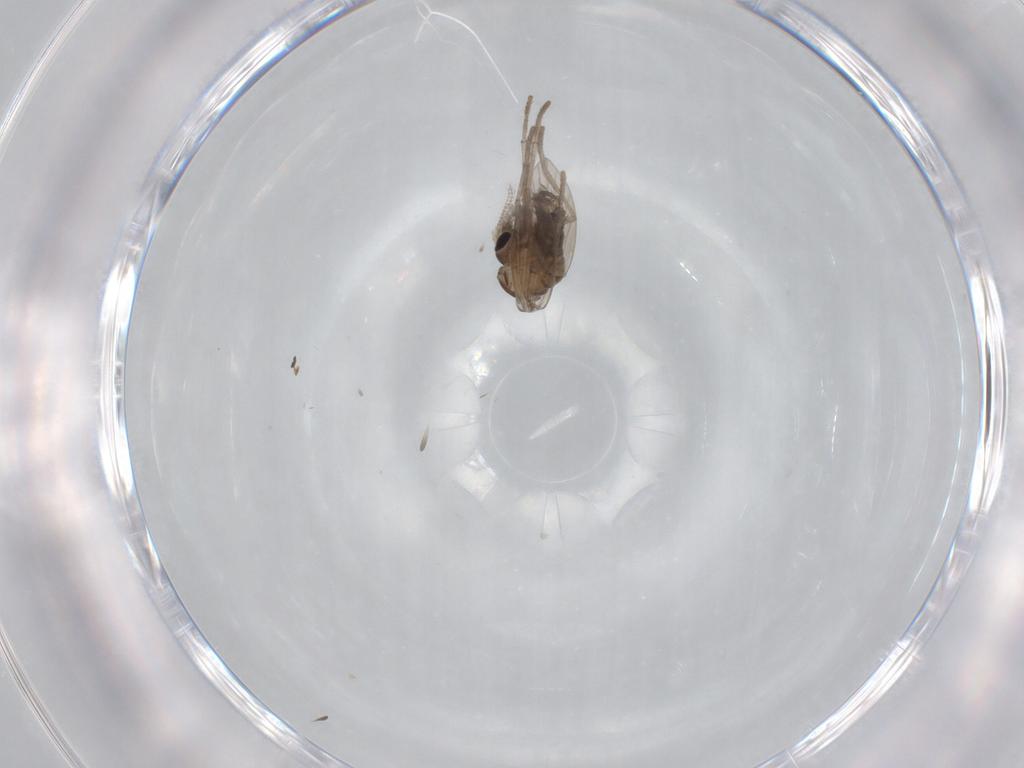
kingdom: Animalia
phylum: Arthropoda
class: Insecta
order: Diptera
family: Psychodidae
